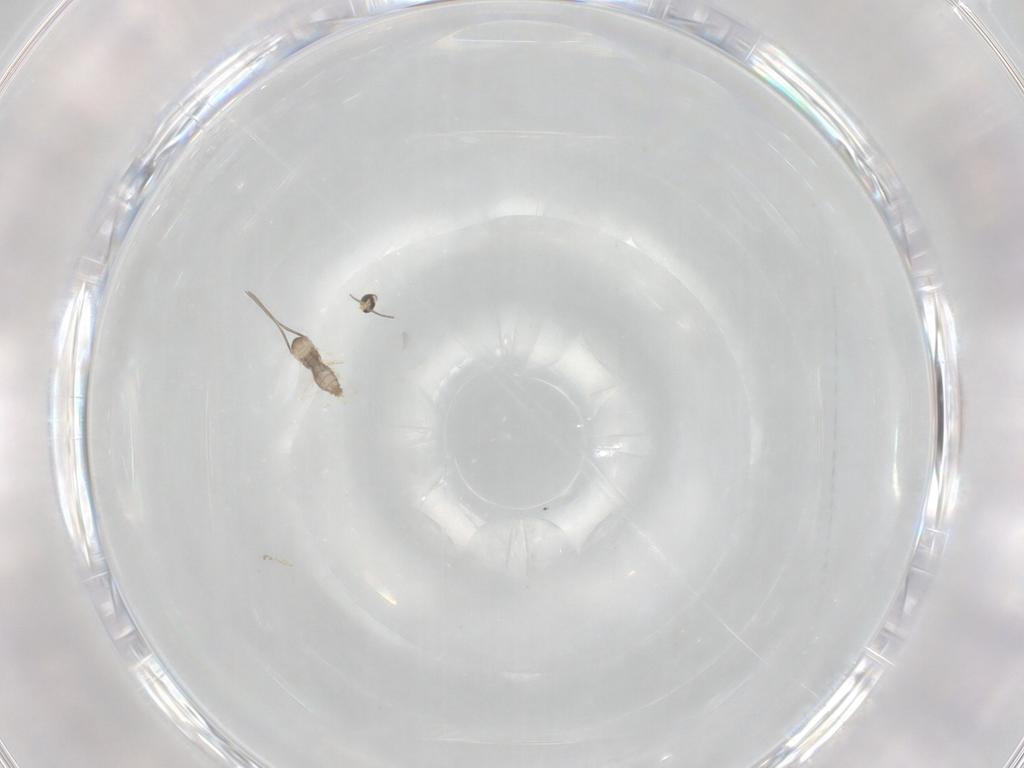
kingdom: Animalia
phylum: Arthropoda
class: Insecta
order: Diptera
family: Cecidomyiidae
